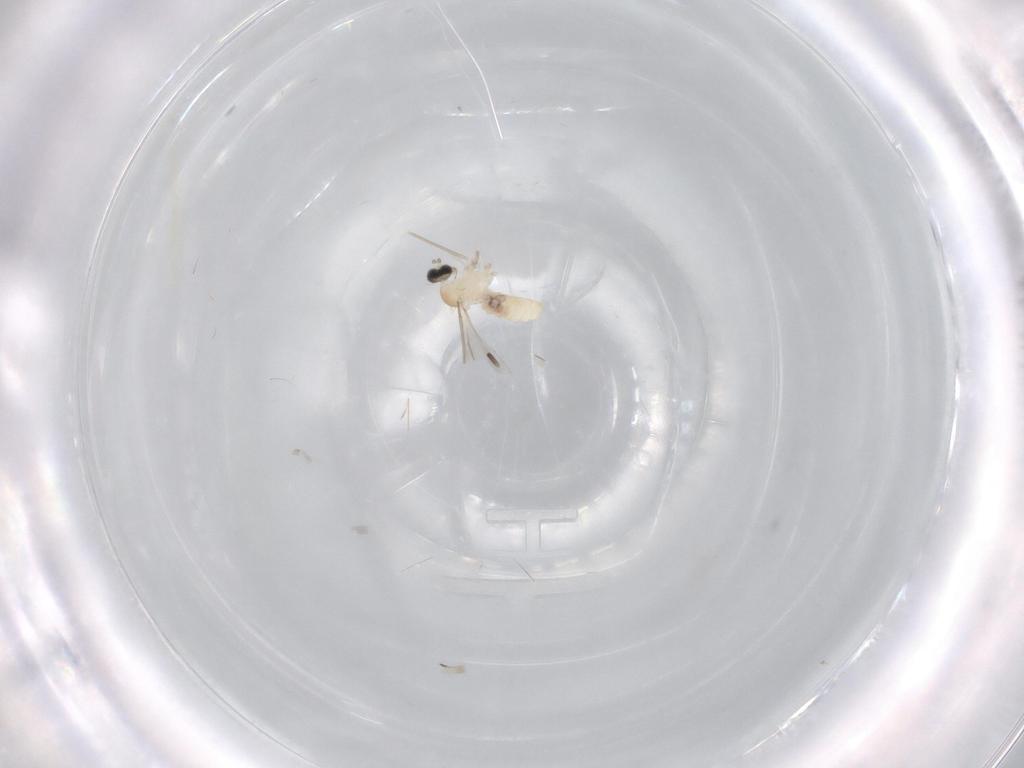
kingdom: Animalia
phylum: Arthropoda
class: Insecta
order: Diptera
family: Cecidomyiidae
